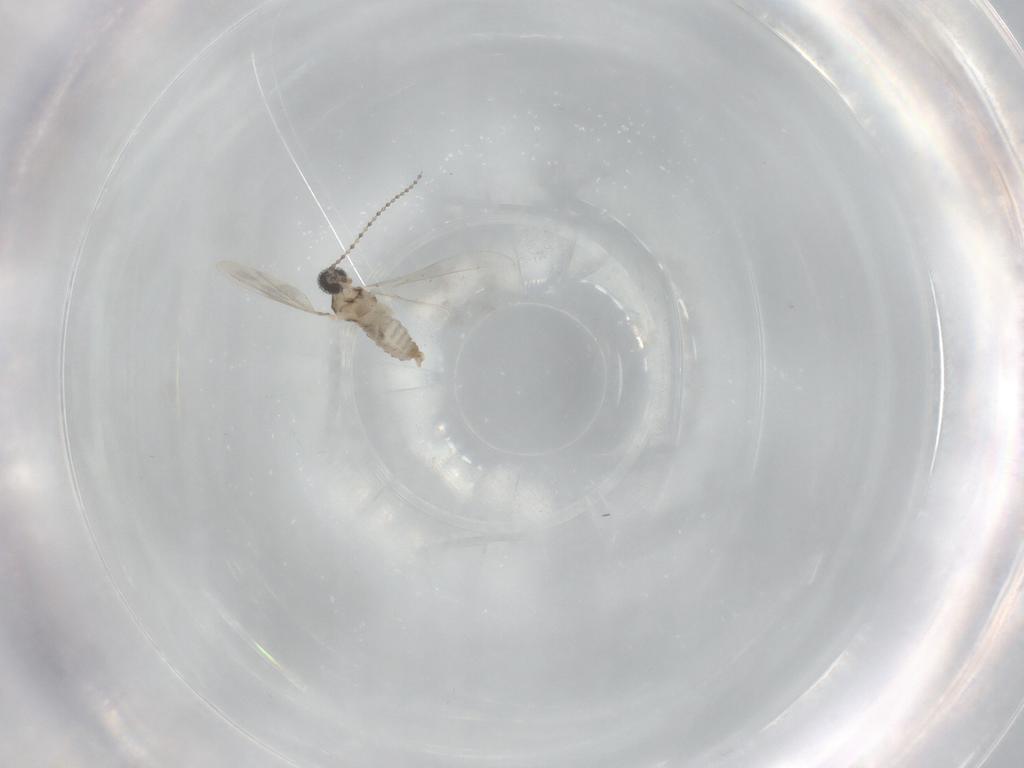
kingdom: Animalia
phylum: Arthropoda
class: Insecta
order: Diptera
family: Cecidomyiidae
